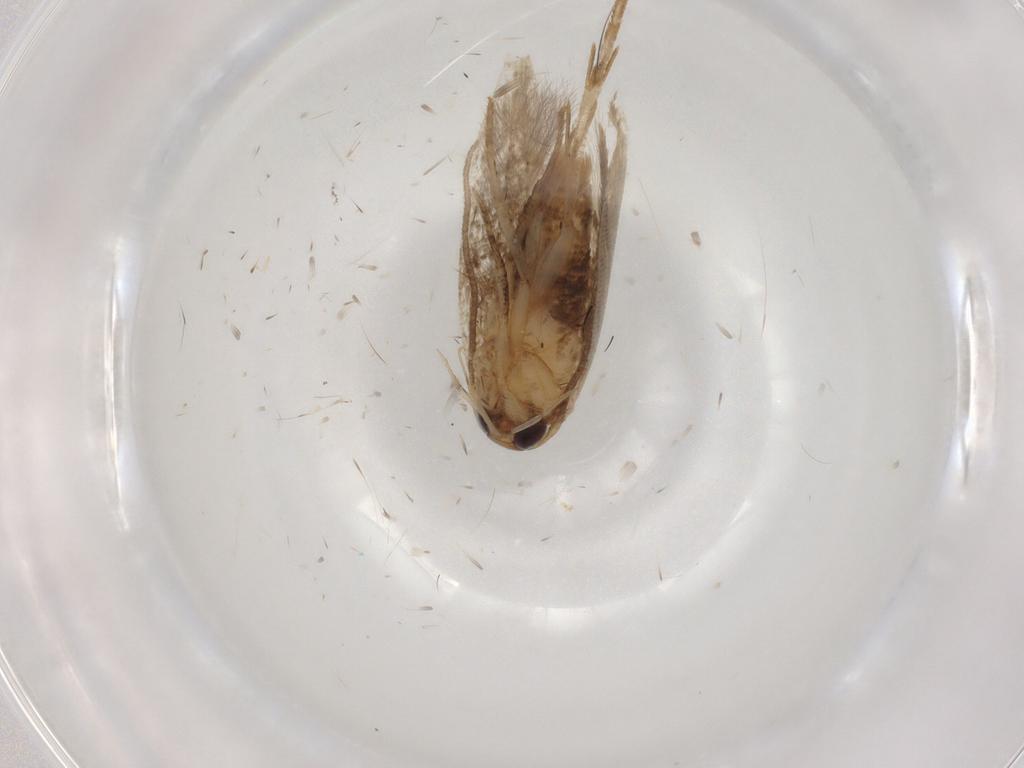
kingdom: Animalia
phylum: Arthropoda
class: Insecta
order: Lepidoptera
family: Cosmopterigidae
